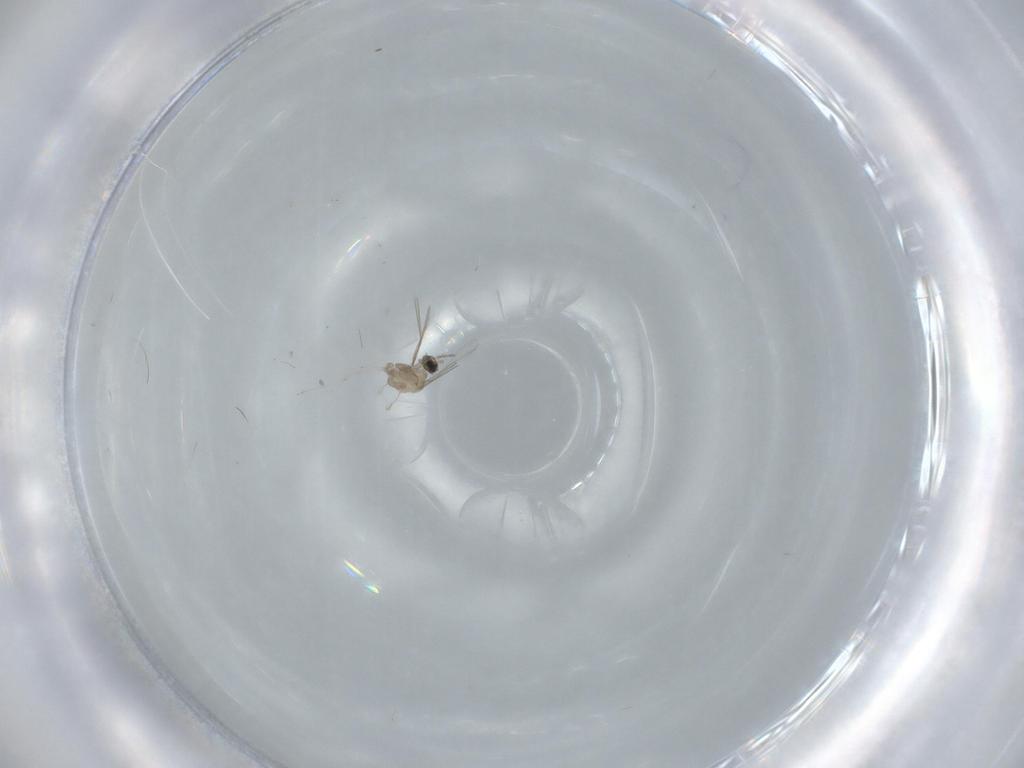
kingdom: Animalia
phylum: Arthropoda
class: Insecta
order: Diptera
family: Cecidomyiidae
